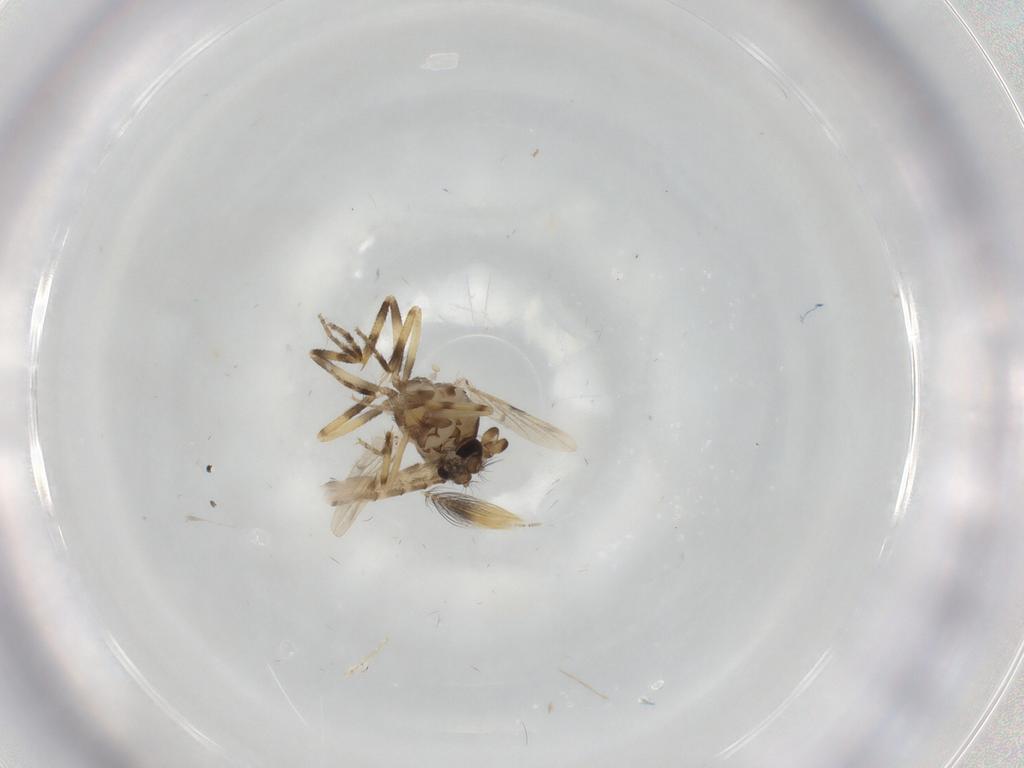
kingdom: Animalia
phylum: Arthropoda
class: Insecta
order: Diptera
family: Ceratopogonidae
